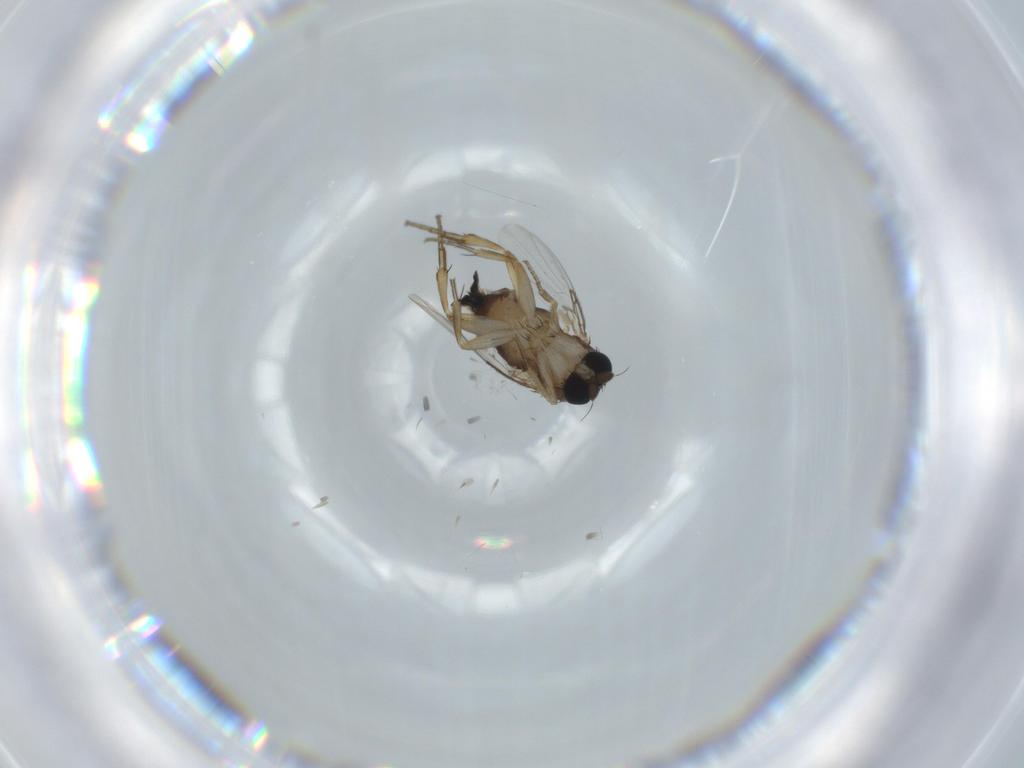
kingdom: Animalia
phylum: Arthropoda
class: Insecta
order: Diptera
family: Phoridae
